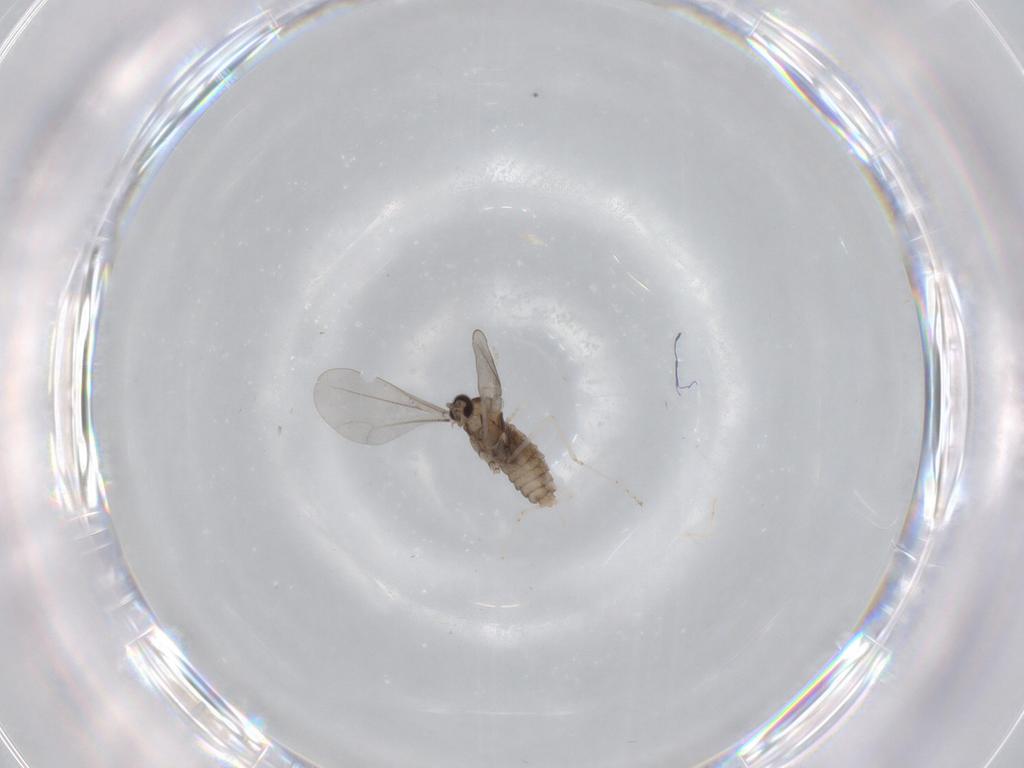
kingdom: Animalia
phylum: Arthropoda
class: Insecta
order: Diptera
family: Cecidomyiidae
